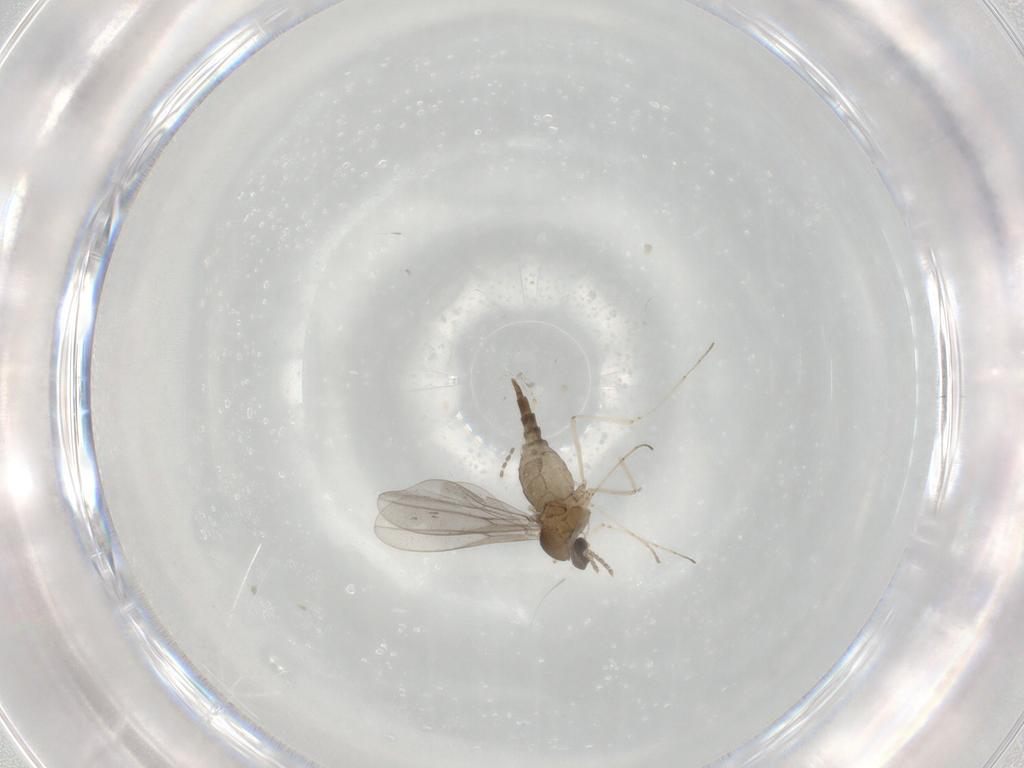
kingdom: Animalia
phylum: Arthropoda
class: Insecta
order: Diptera
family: Cecidomyiidae
